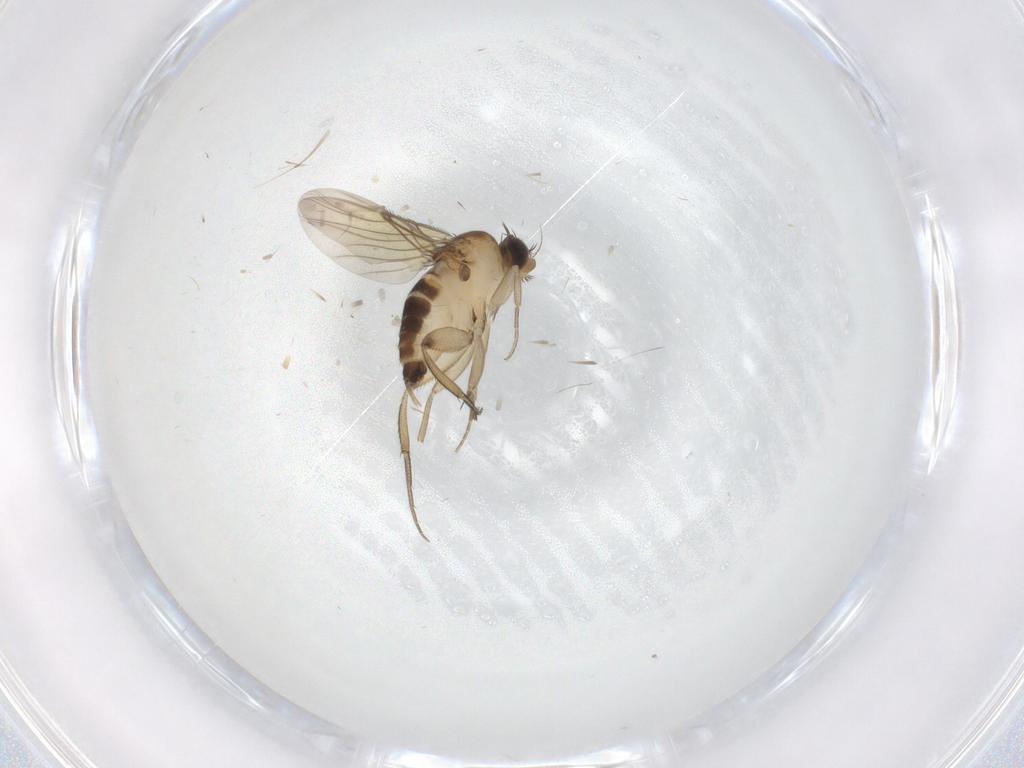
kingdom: Animalia
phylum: Arthropoda
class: Insecta
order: Diptera
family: Phoridae
